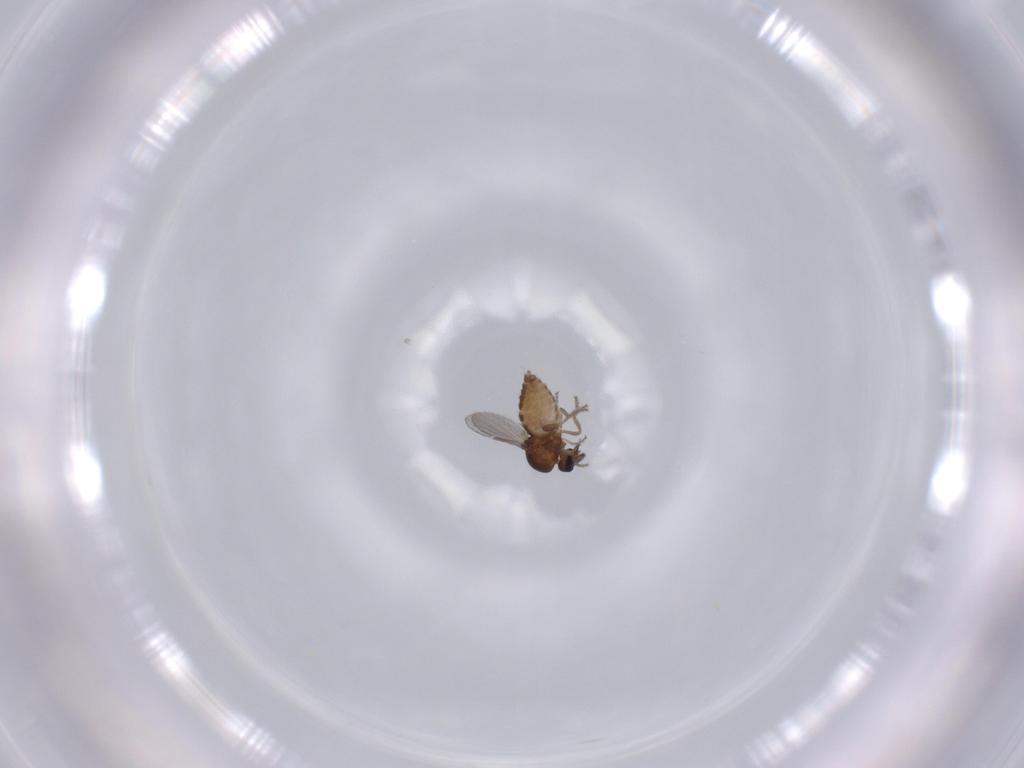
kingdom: Animalia
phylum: Arthropoda
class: Insecta
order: Diptera
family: Ceratopogonidae
